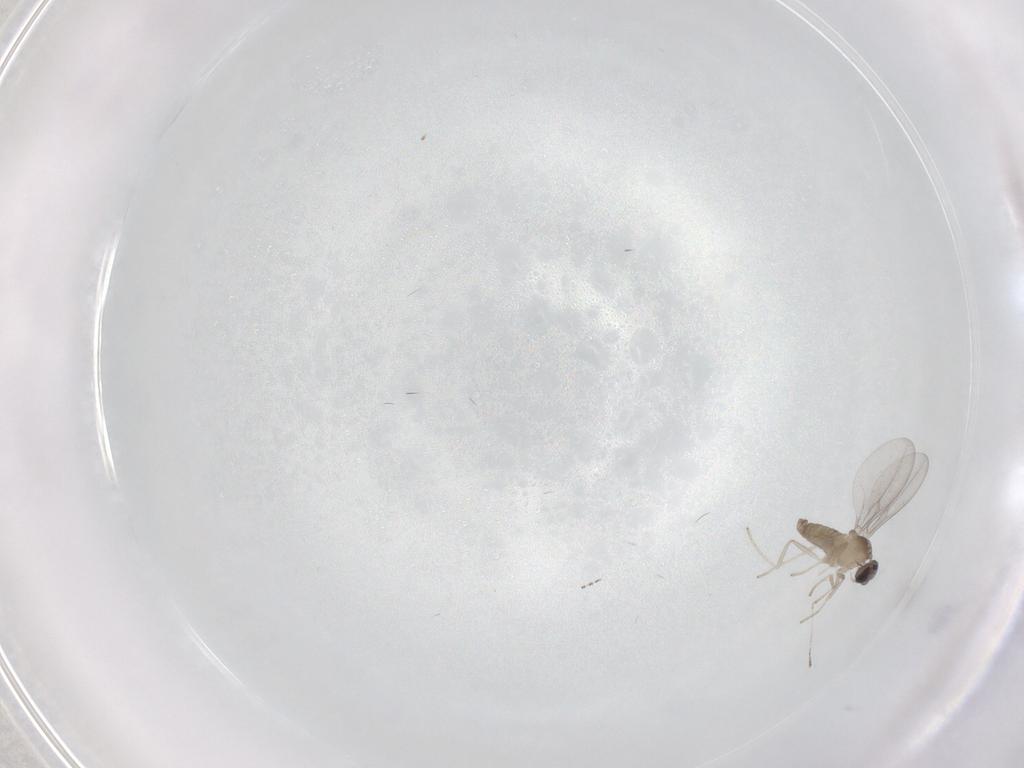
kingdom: Animalia
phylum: Arthropoda
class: Insecta
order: Diptera
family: Cecidomyiidae
